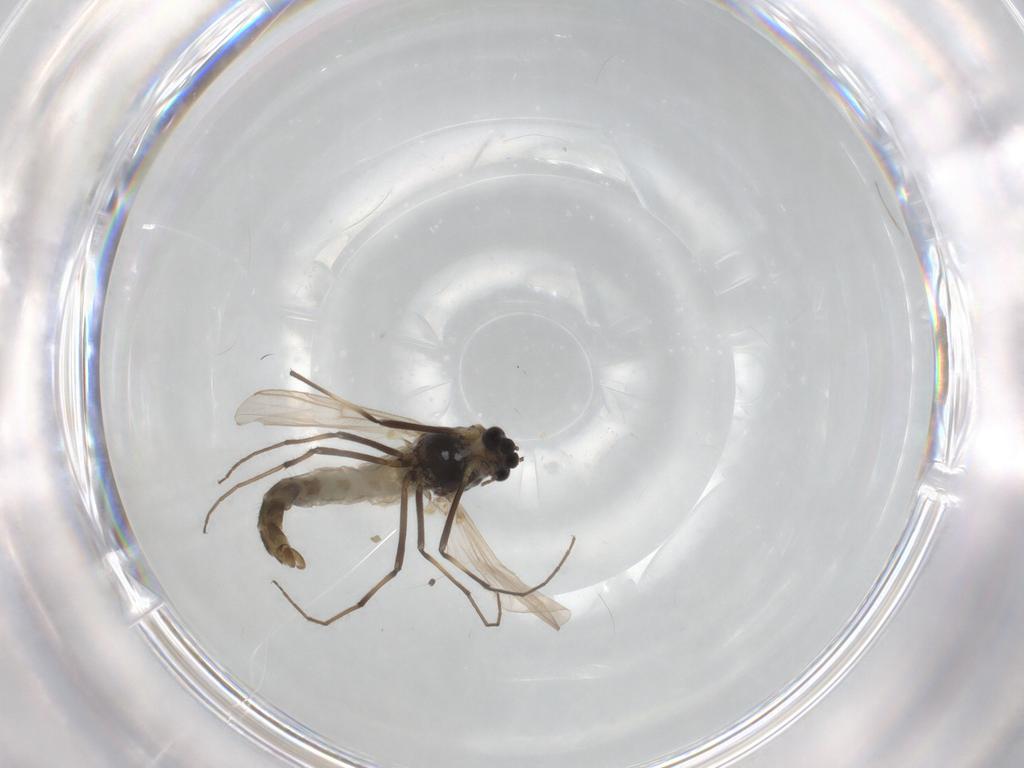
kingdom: Animalia
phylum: Arthropoda
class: Insecta
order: Diptera
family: Chironomidae
